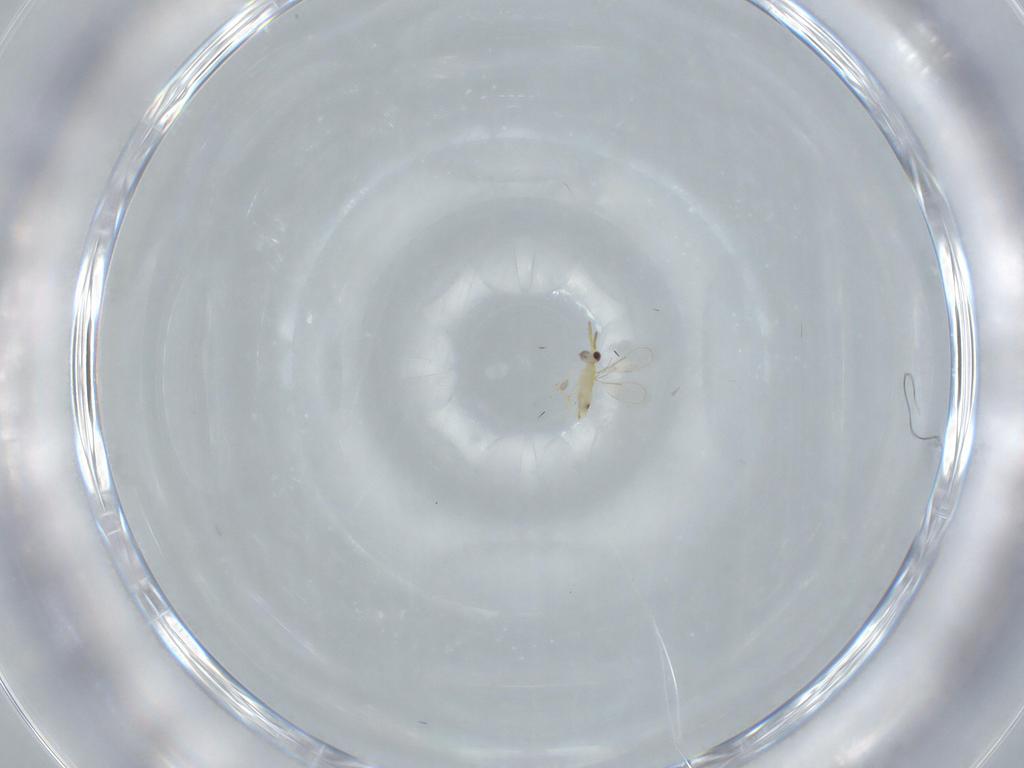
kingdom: Animalia
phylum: Arthropoda
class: Insecta
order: Hymenoptera
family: Aphelinidae
